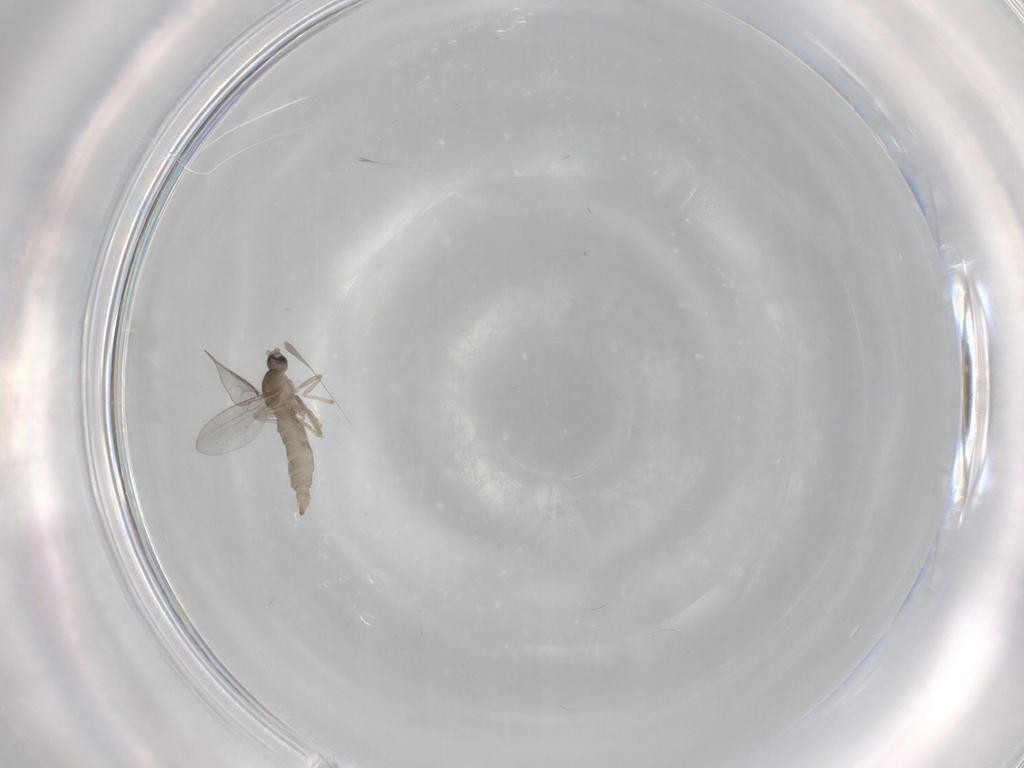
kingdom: Animalia
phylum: Arthropoda
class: Insecta
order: Diptera
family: Cecidomyiidae
